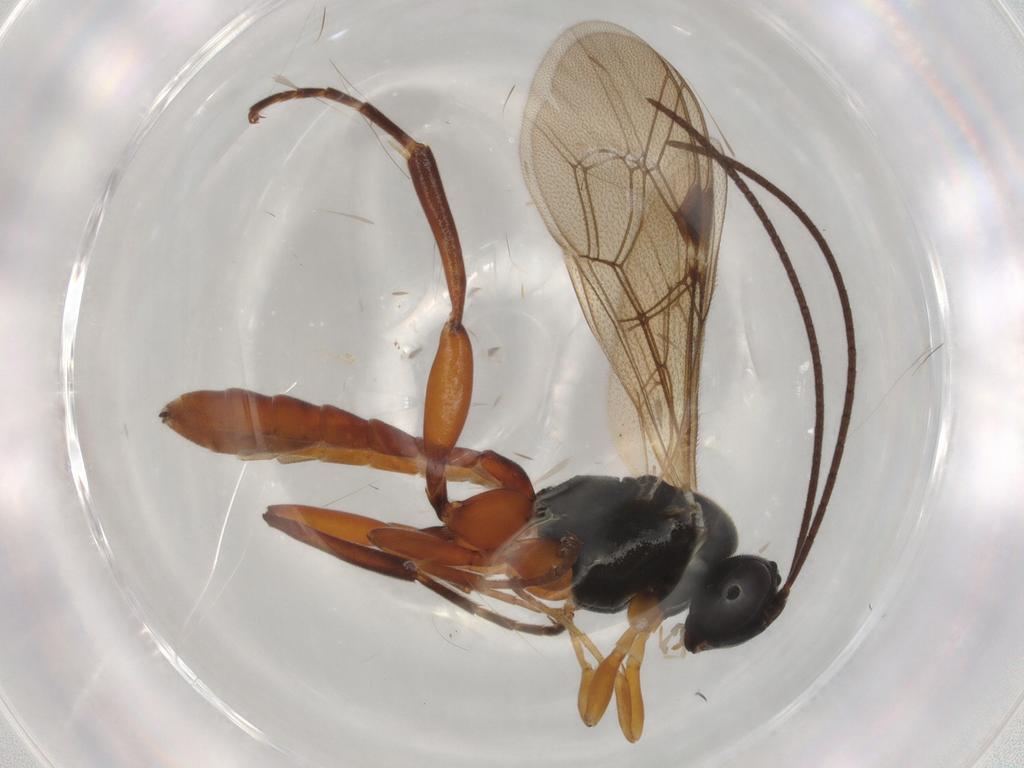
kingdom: Animalia
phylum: Arthropoda
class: Insecta
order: Hymenoptera
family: Ichneumonidae
